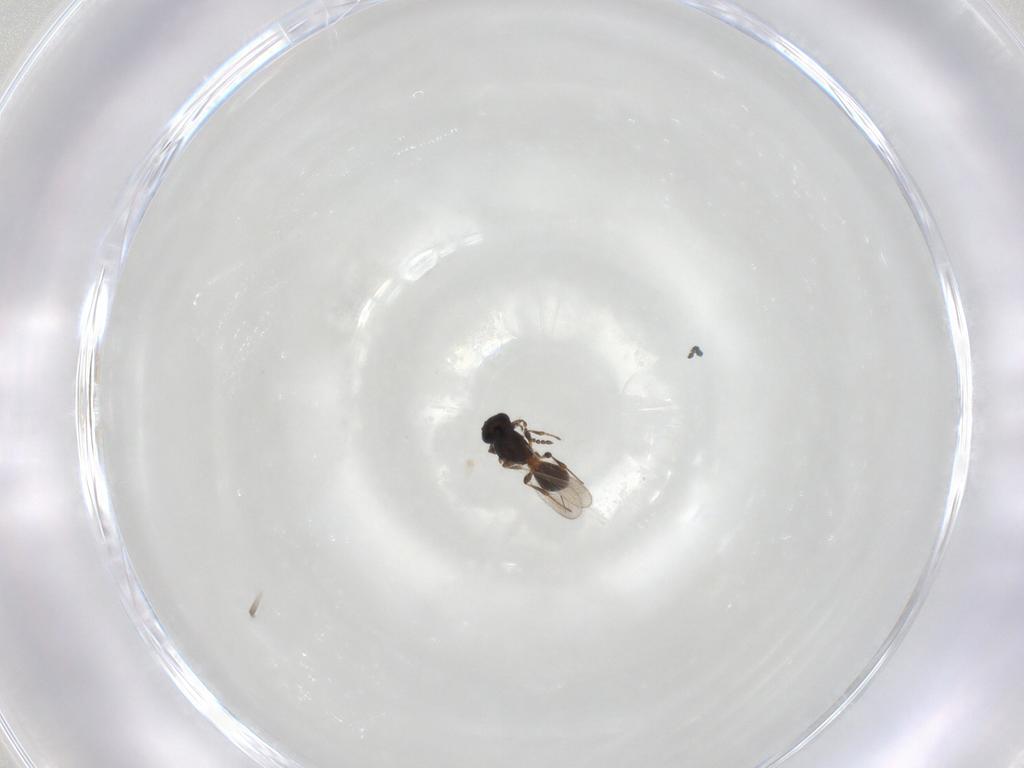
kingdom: Animalia
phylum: Arthropoda
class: Insecta
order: Hymenoptera
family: Platygastridae
